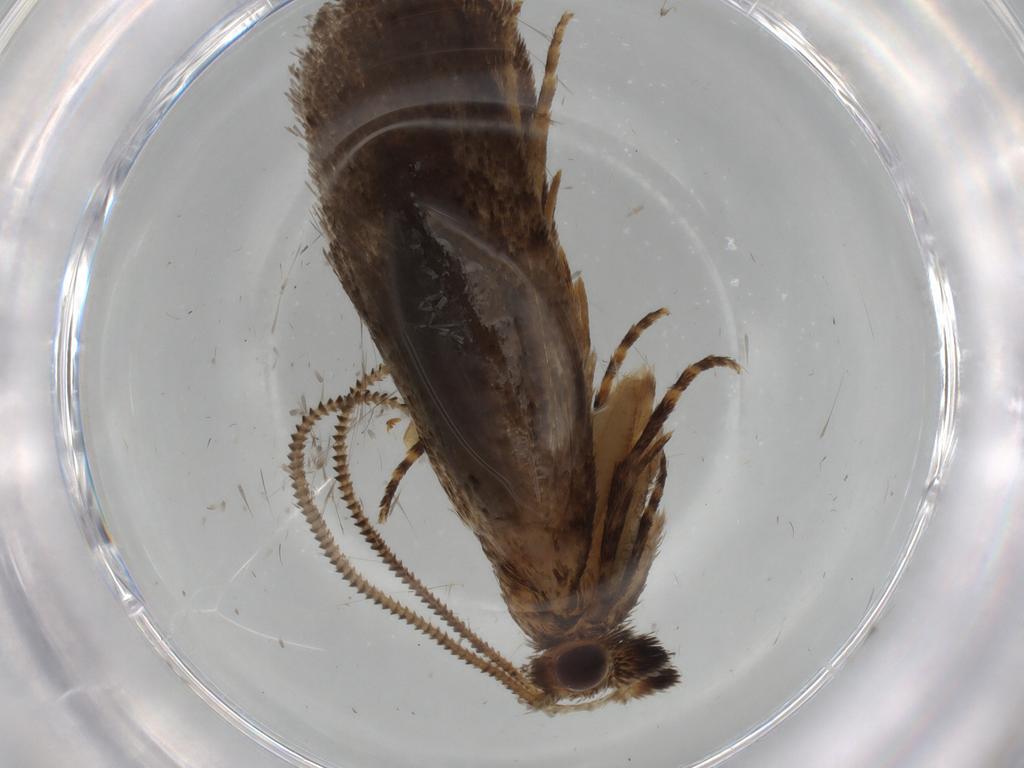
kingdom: Animalia
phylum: Arthropoda
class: Insecta
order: Lepidoptera
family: Tineidae
